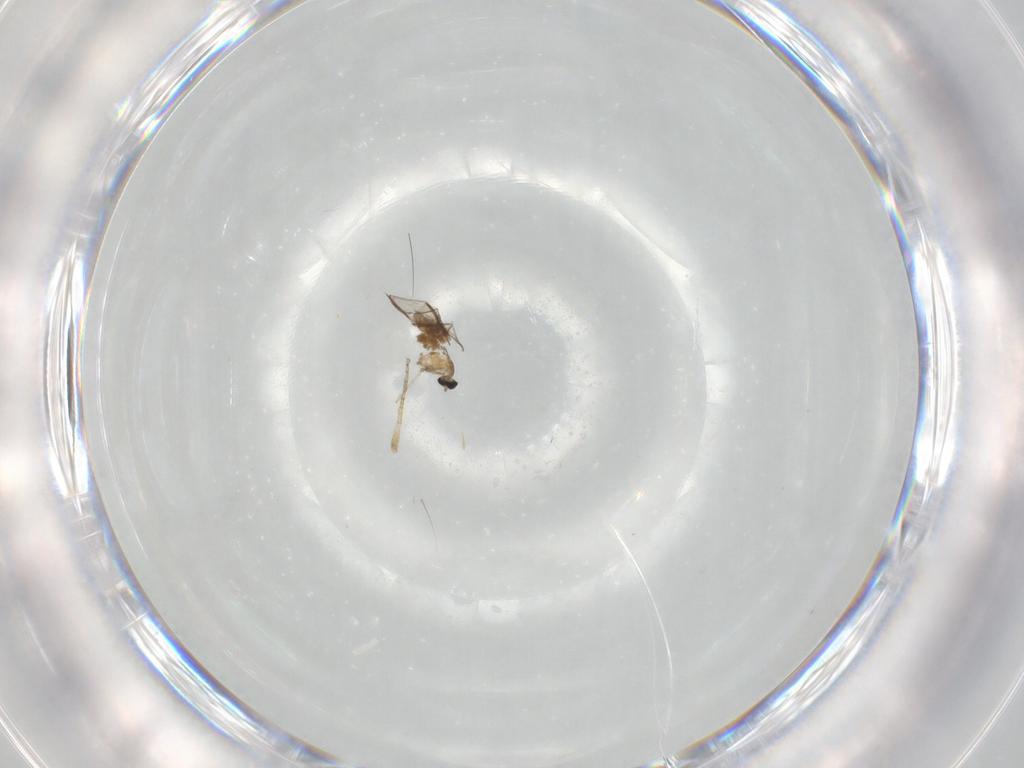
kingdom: Animalia
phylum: Arthropoda
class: Insecta
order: Diptera
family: Ceratopogonidae
